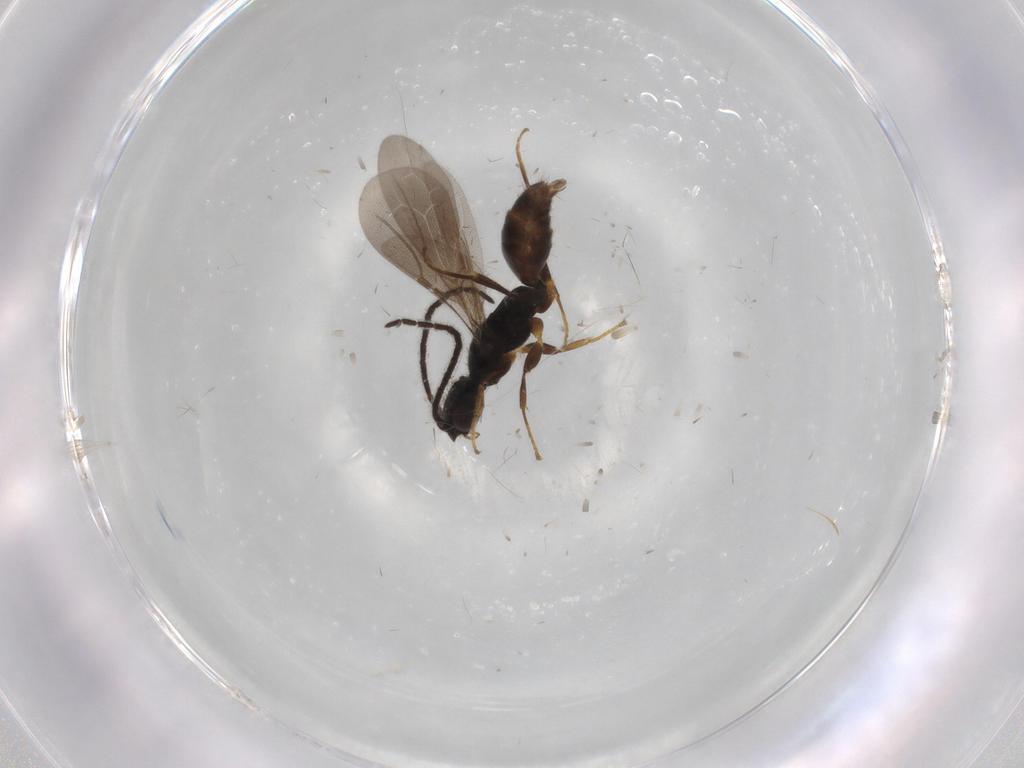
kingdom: Animalia
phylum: Arthropoda
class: Insecta
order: Hymenoptera
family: Bethylidae
